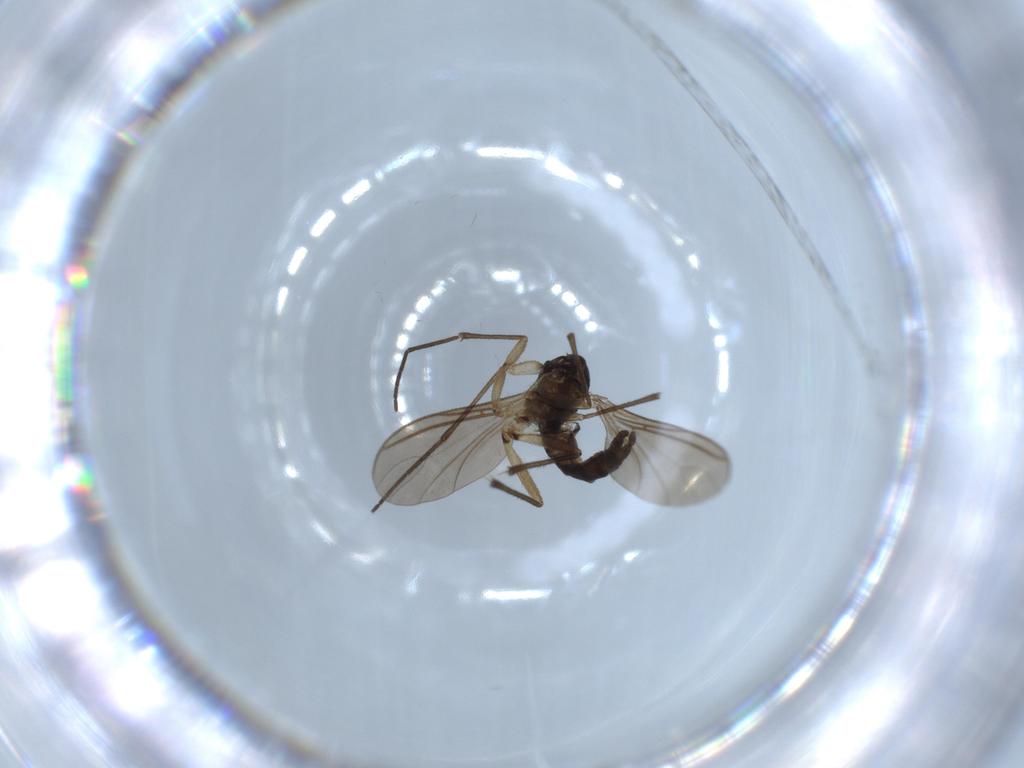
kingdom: Animalia
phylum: Arthropoda
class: Insecta
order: Diptera
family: Sciaridae
